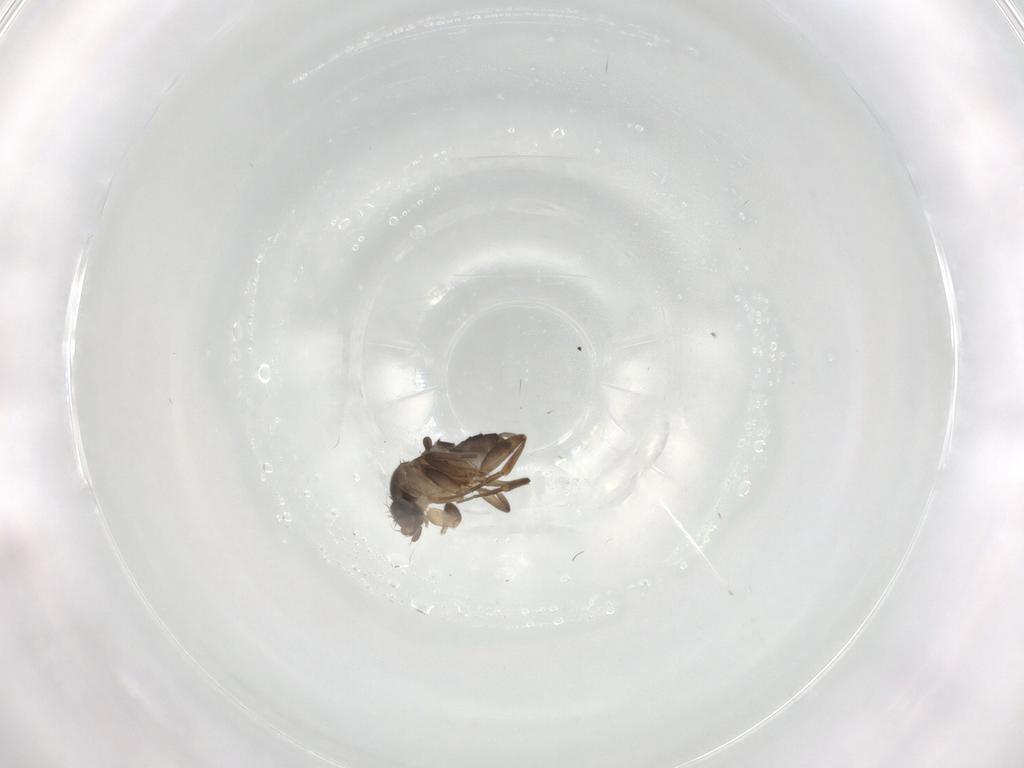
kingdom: Animalia
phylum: Arthropoda
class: Insecta
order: Diptera
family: Phoridae
